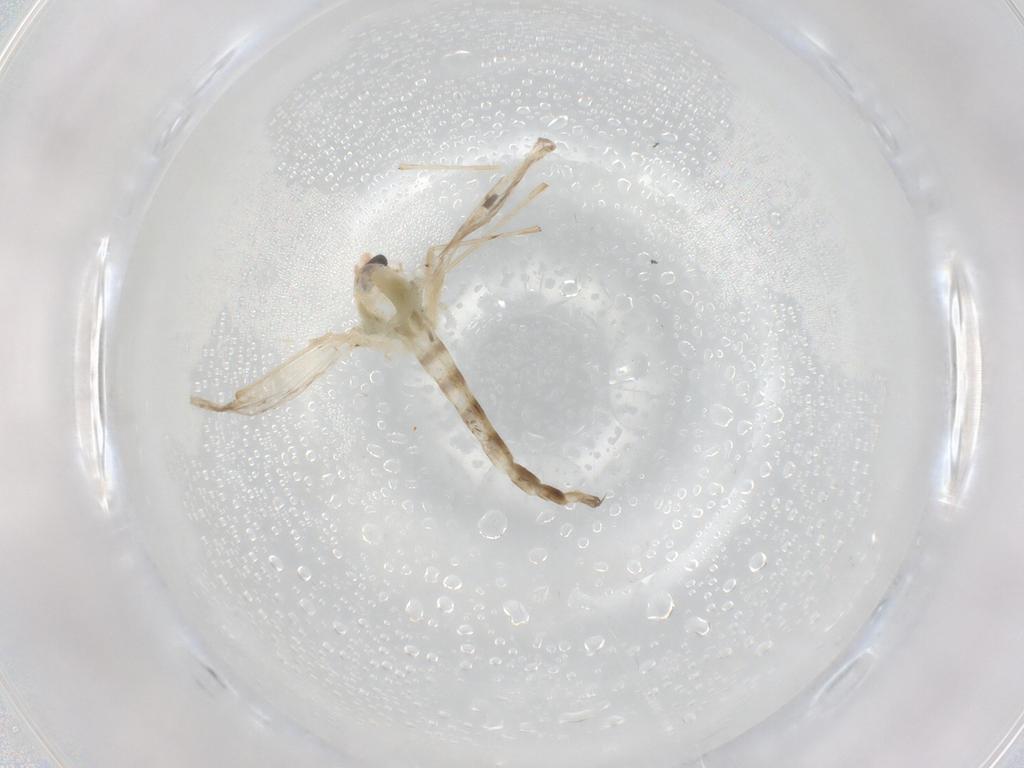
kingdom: Animalia
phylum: Arthropoda
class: Insecta
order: Diptera
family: Chironomidae
